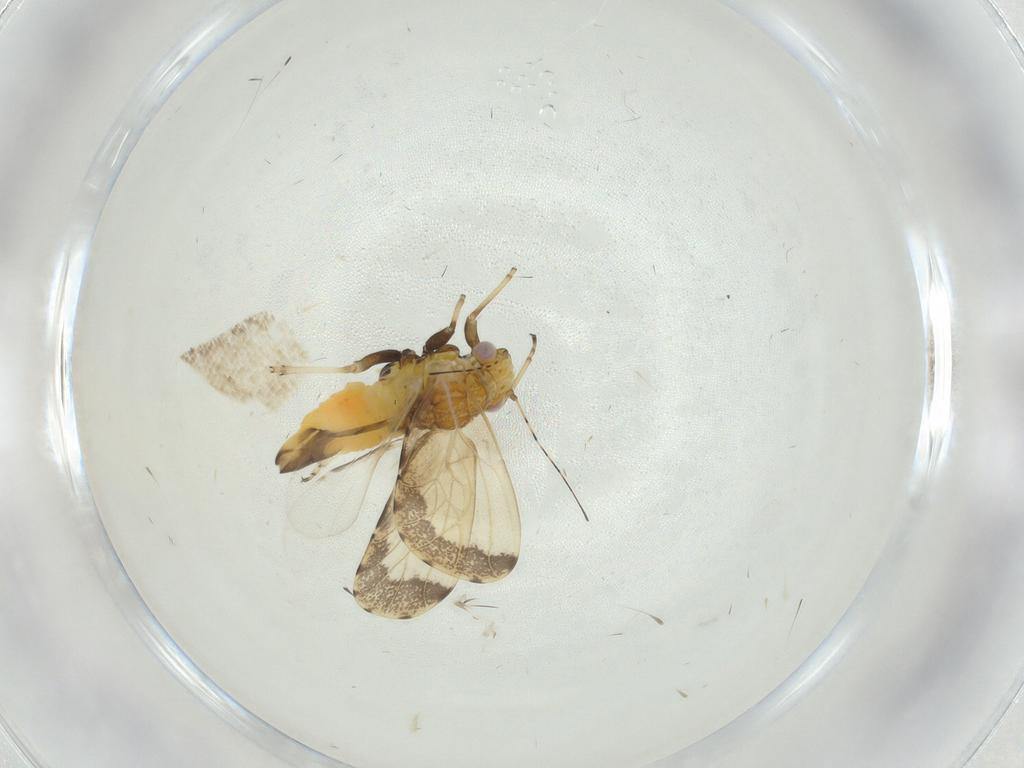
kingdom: Animalia
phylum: Arthropoda
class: Insecta
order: Hemiptera
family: Psyllidae
